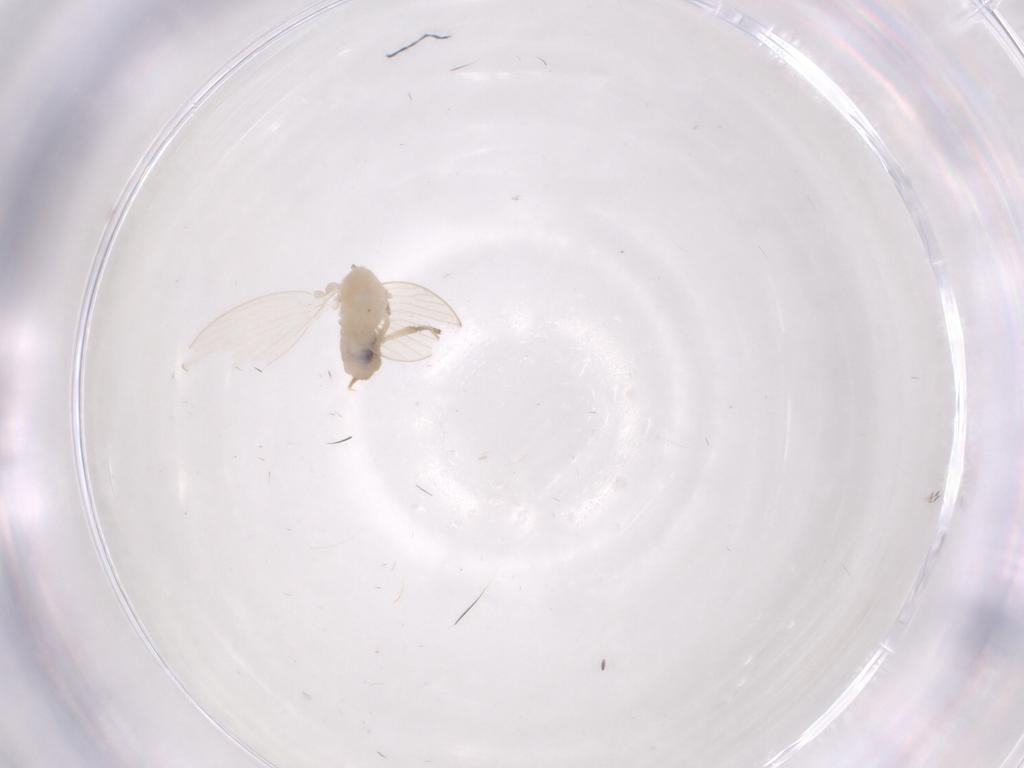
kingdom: Animalia
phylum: Arthropoda
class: Insecta
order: Diptera
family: Psychodidae
